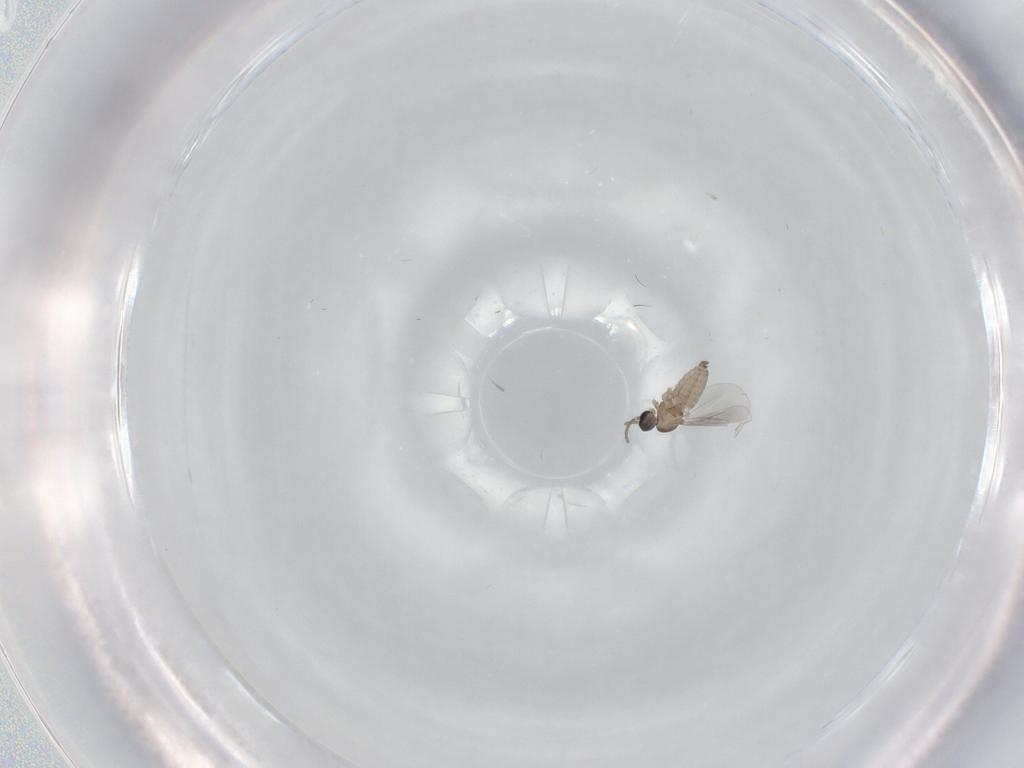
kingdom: Animalia
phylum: Arthropoda
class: Insecta
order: Diptera
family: Cecidomyiidae
